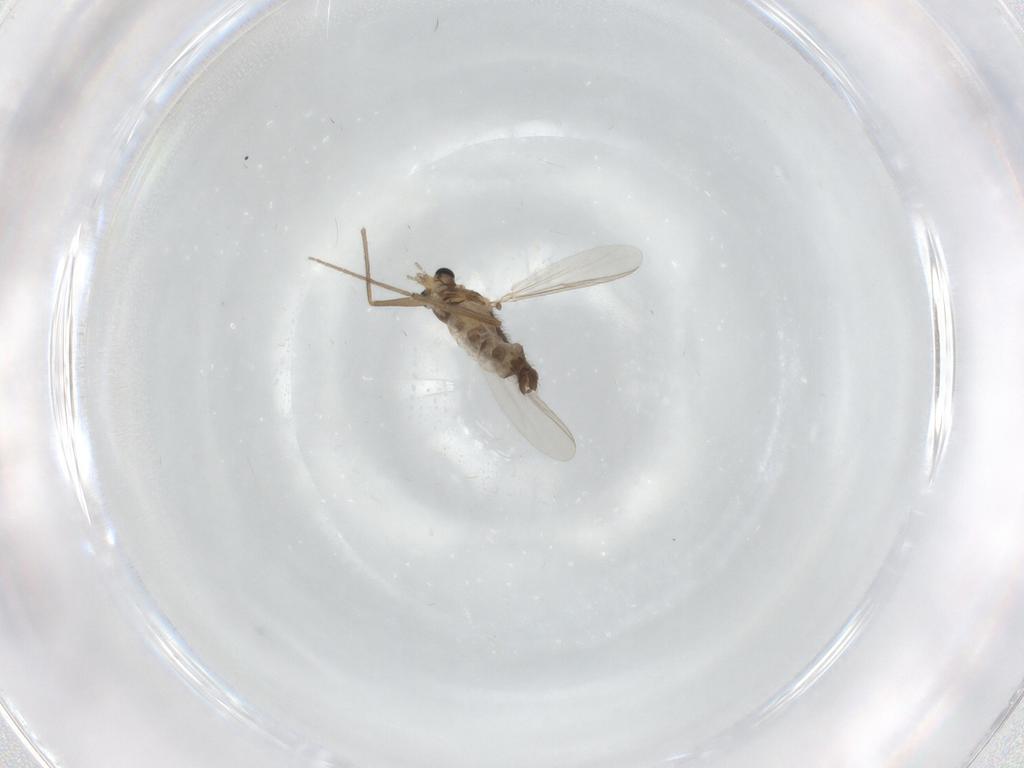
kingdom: Animalia
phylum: Arthropoda
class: Insecta
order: Diptera
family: Chironomidae
